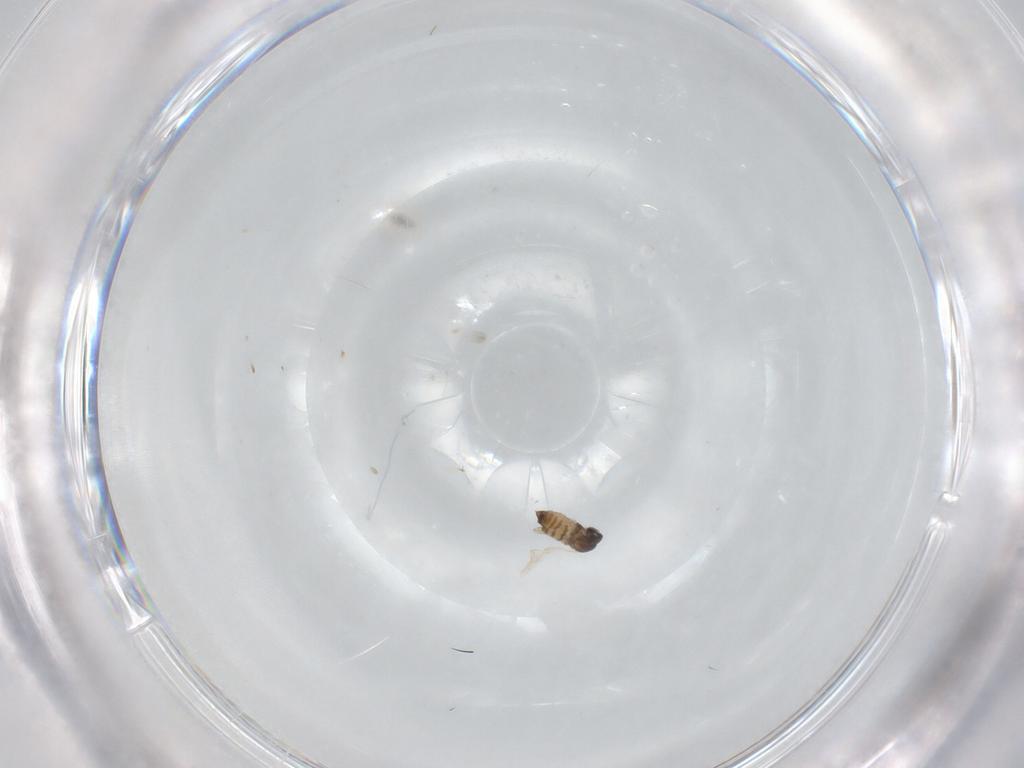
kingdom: Animalia
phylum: Arthropoda
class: Insecta
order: Diptera
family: Cecidomyiidae
